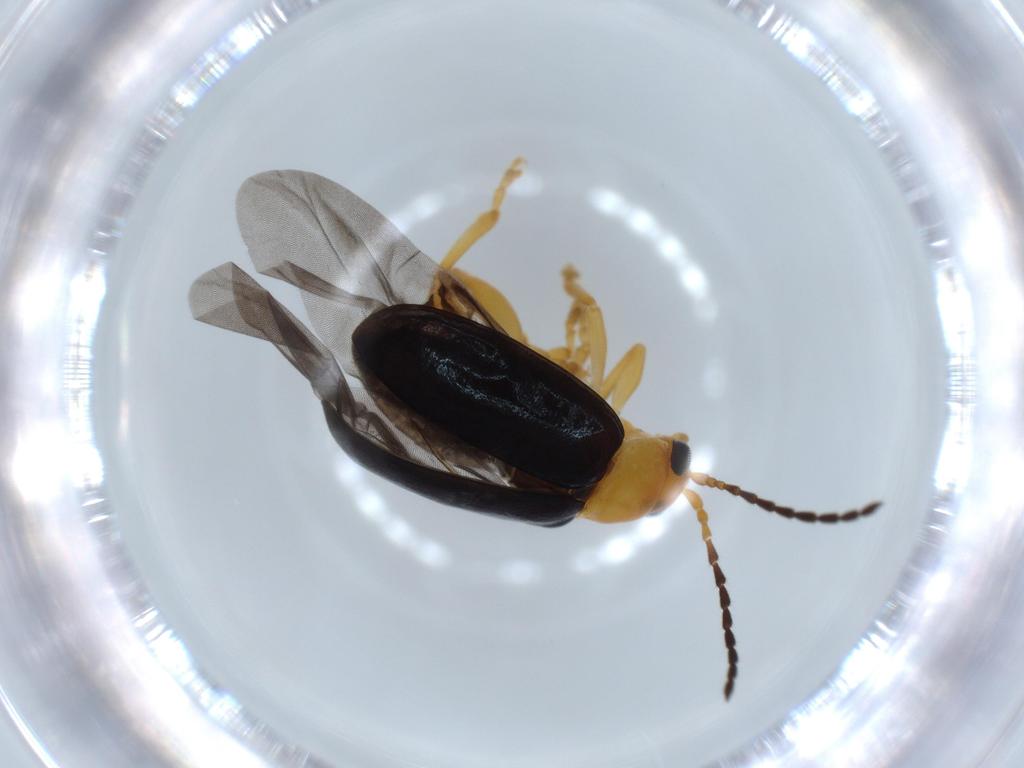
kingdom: Animalia
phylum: Arthropoda
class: Insecta
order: Coleoptera
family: Chrysomelidae
